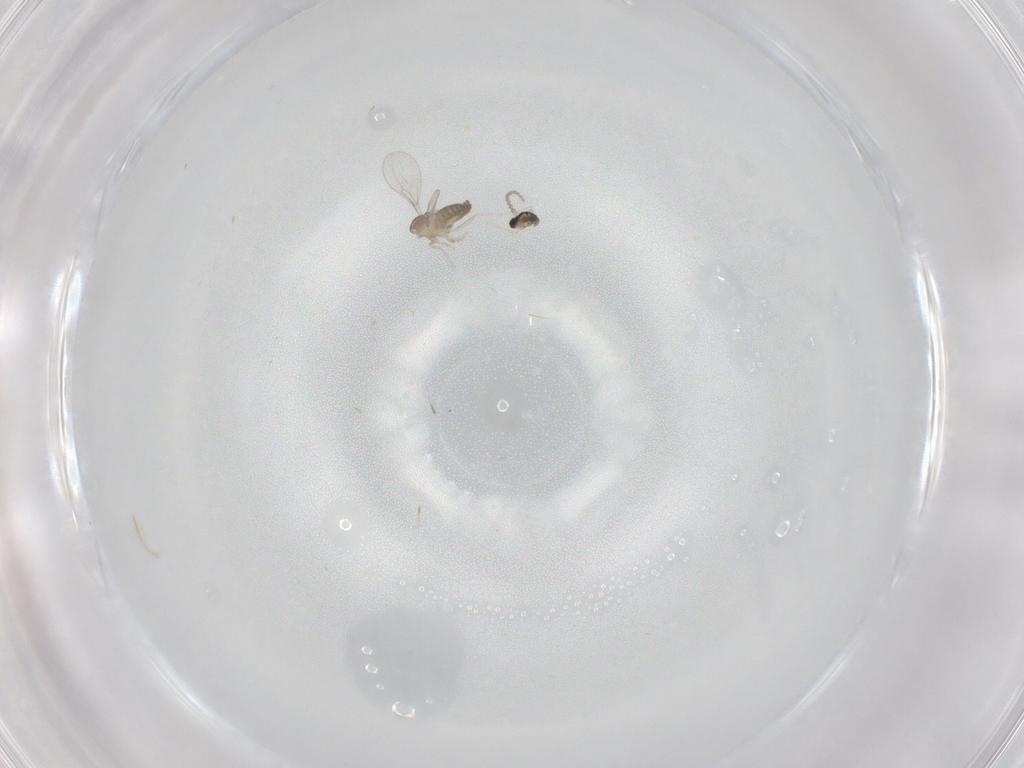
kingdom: Animalia
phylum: Arthropoda
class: Insecta
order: Diptera
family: Cecidomyiidae
